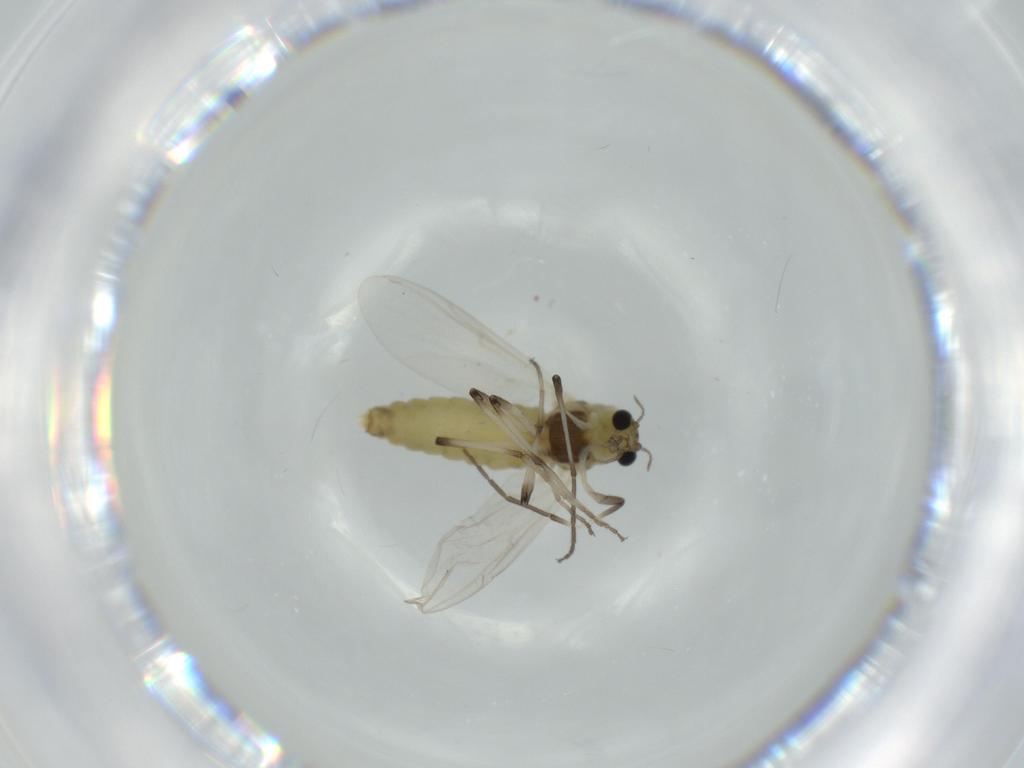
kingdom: Animalia
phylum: Arthropoda
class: Insecta
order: Diptera
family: Chironomidae
